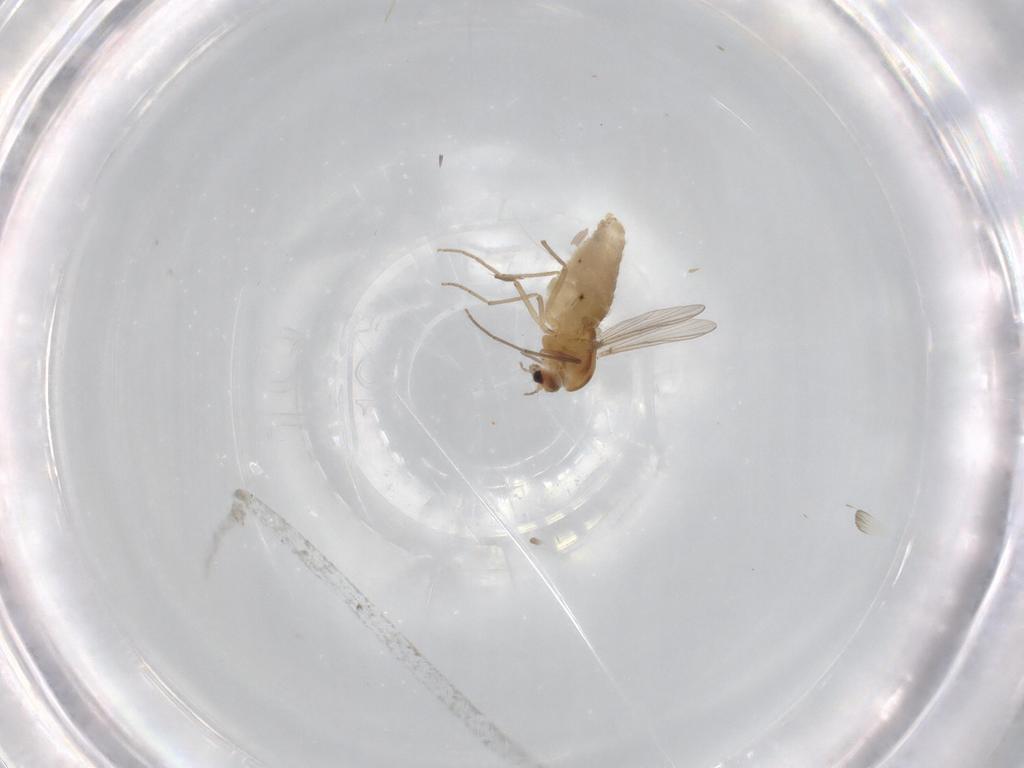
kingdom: Animalia
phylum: Arthropoda
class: Insecta
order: Diptera
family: Chironomidae
